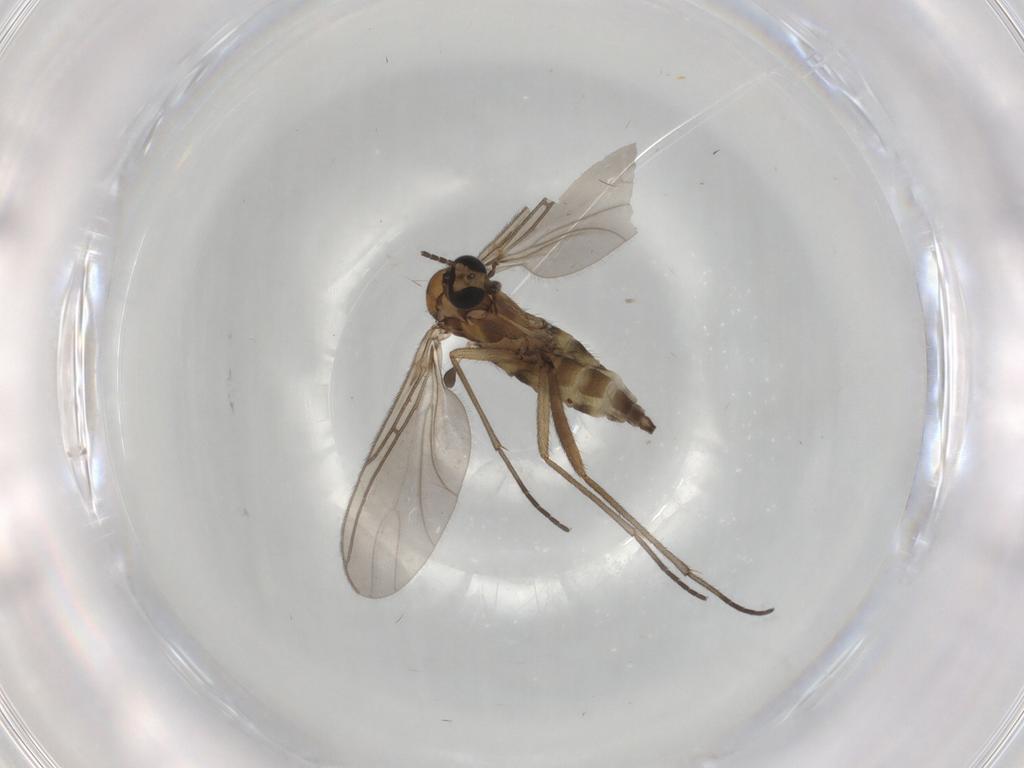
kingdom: Animalia
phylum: Arthropoda
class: Insecta
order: Diptera
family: Sciaridae
